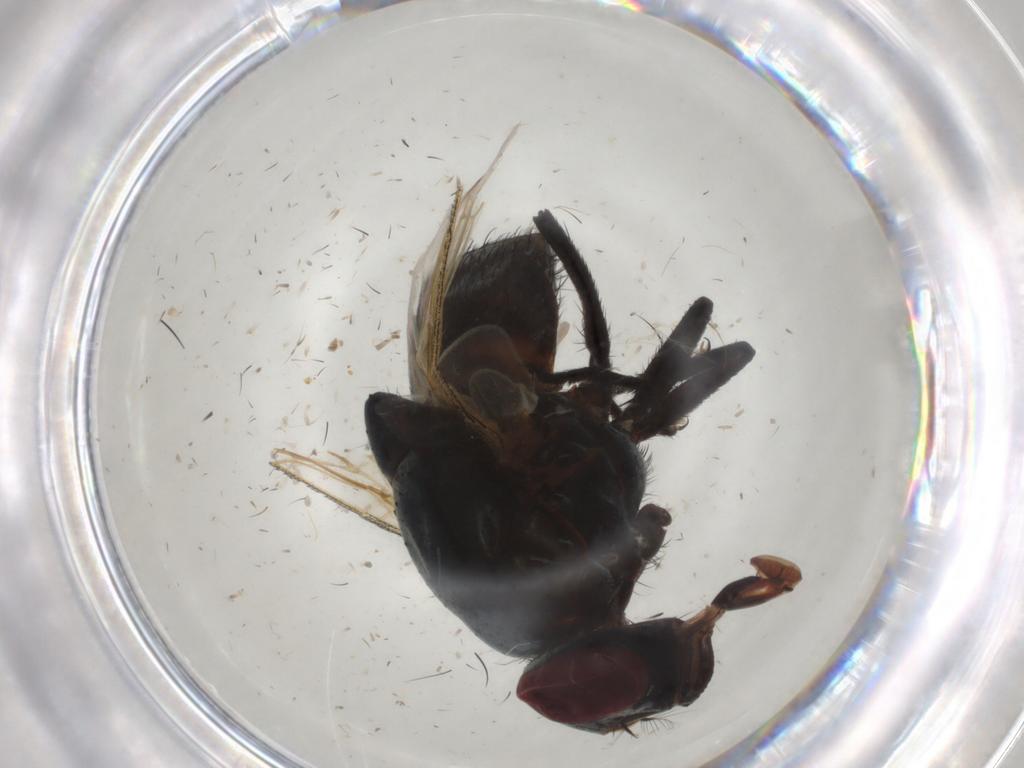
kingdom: Animalia
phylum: Arthropoda
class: Insecta
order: Diptera
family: Muscidae
